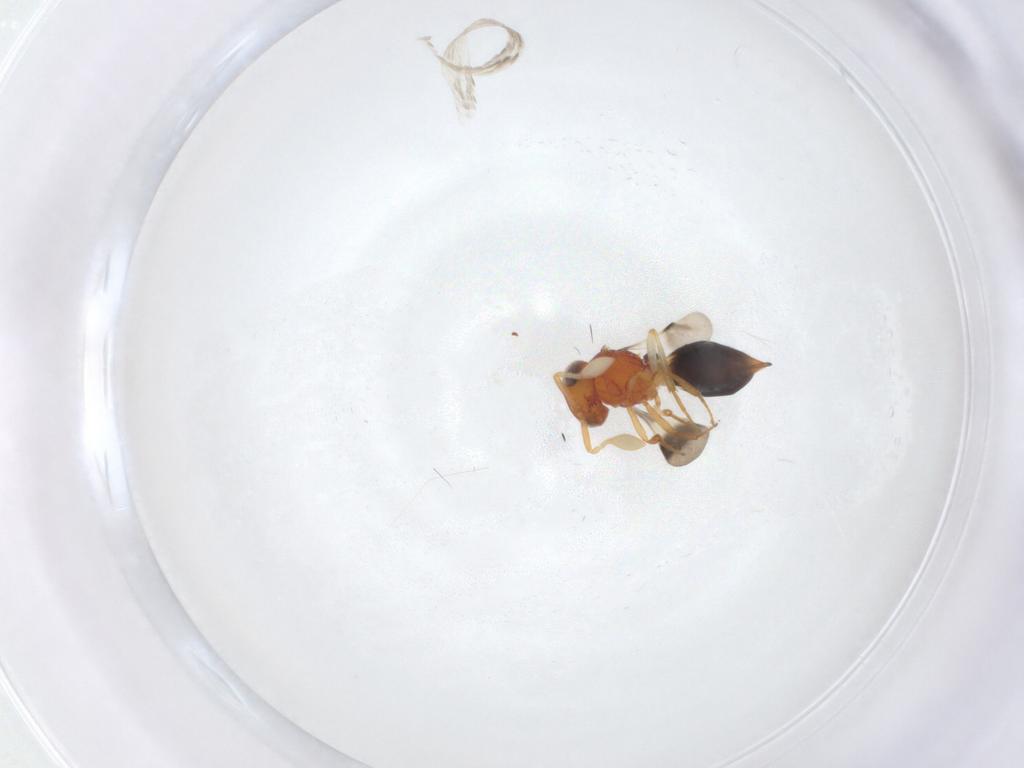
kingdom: Animalia
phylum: Arthropoda
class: Insecta
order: Hymenoptera
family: Scelionidae
